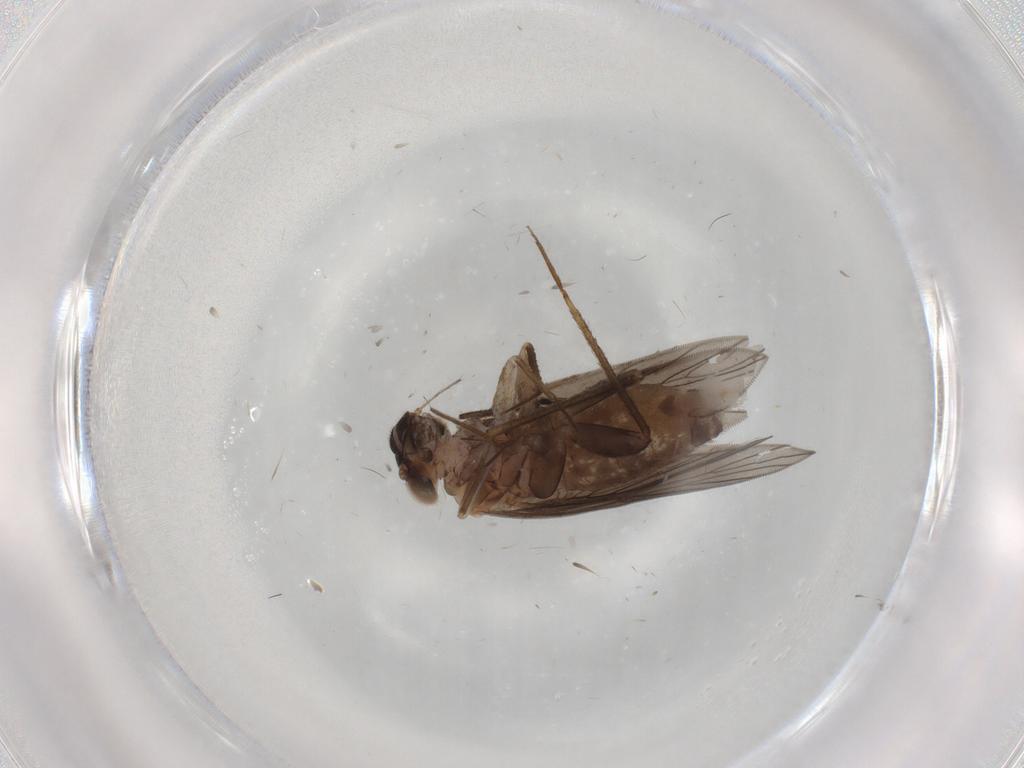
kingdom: Animalia
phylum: Arthropoda
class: Insecta
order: Psocodea
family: Lepidopsocidae
